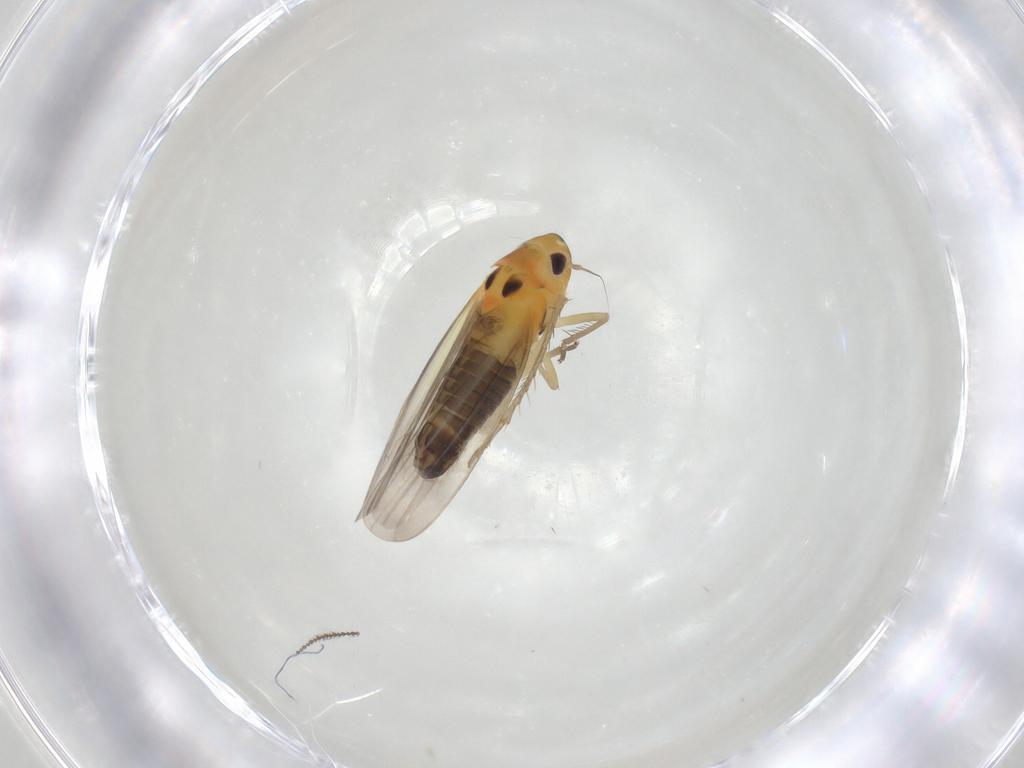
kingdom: Animalia
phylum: Arthropoda
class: Insecta
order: Hemiptera
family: Cicadellidae
